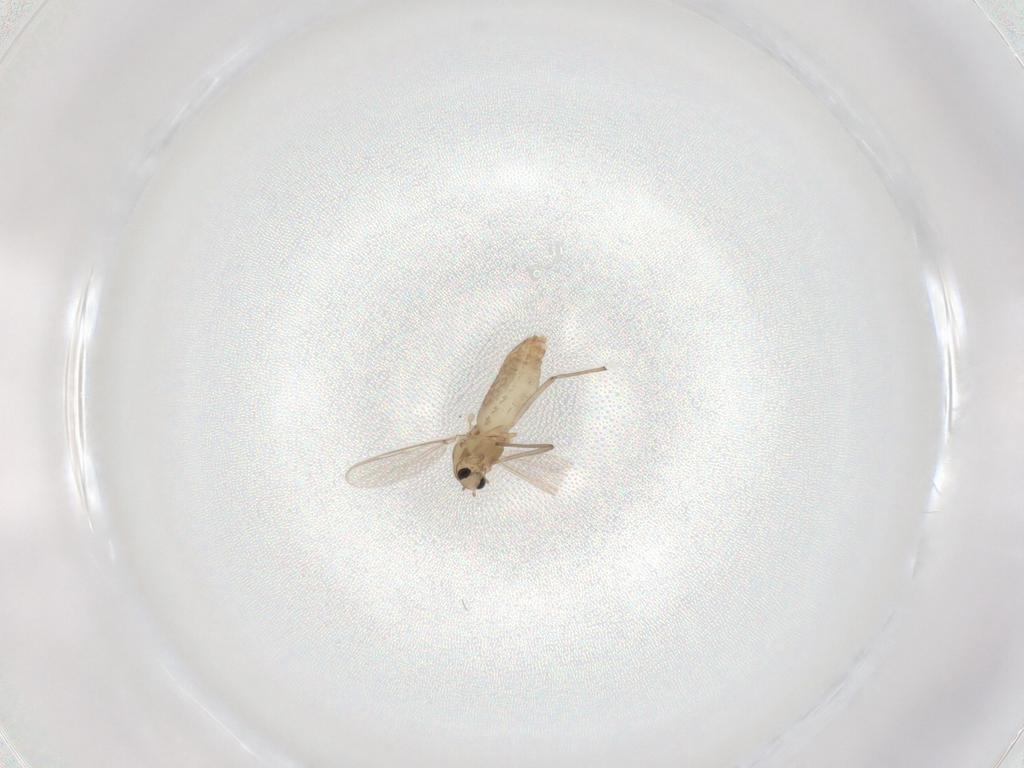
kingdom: Animalia
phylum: Arthropoda
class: Insecta
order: Diptera
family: Chironomidae
